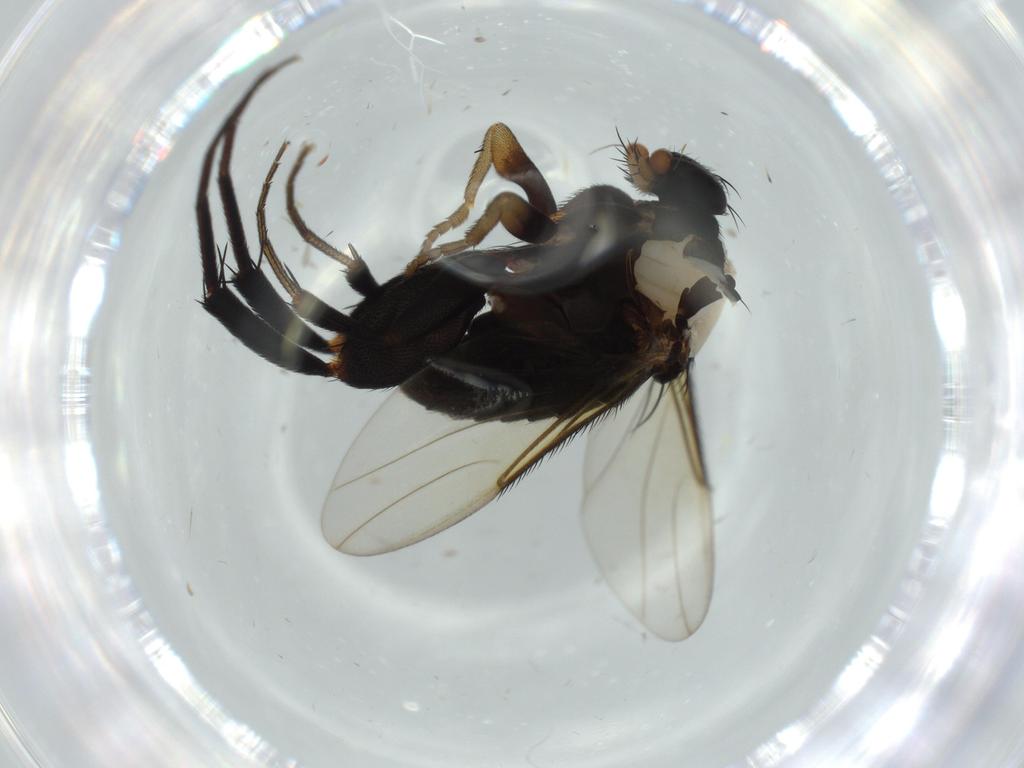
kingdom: Animalia
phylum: Arthropoda
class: Insecta
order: Diptera
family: Phoridae
